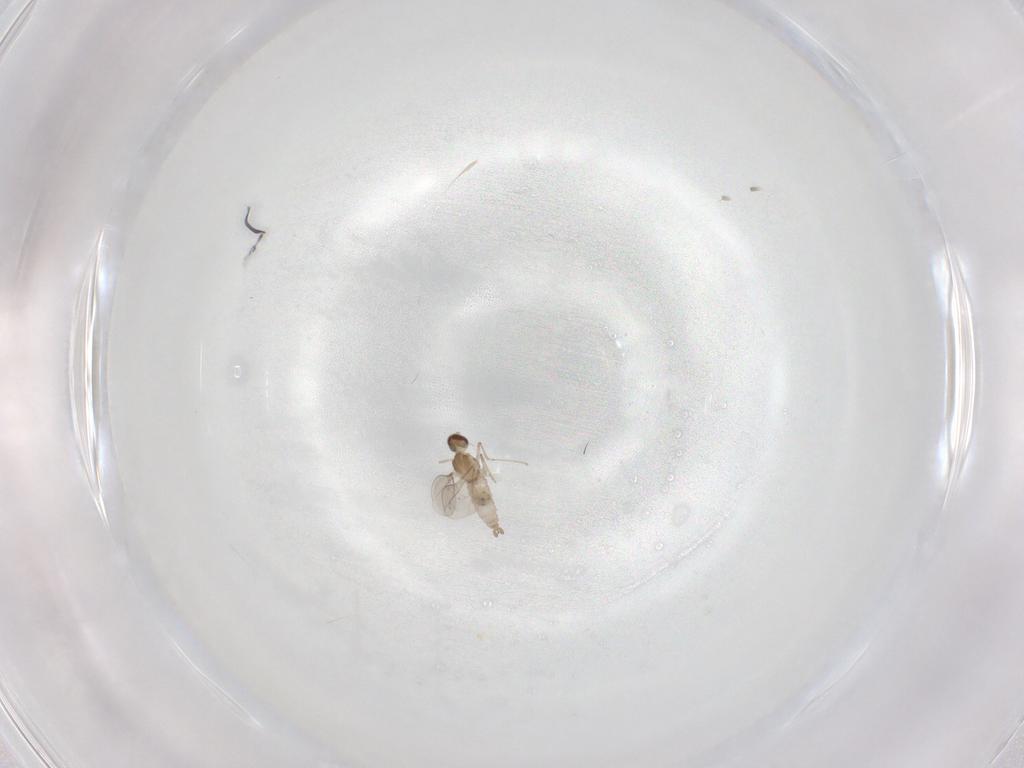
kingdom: Animalia
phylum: Arthropoda
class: Insecta
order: Diptera
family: Cecidomyiidae
